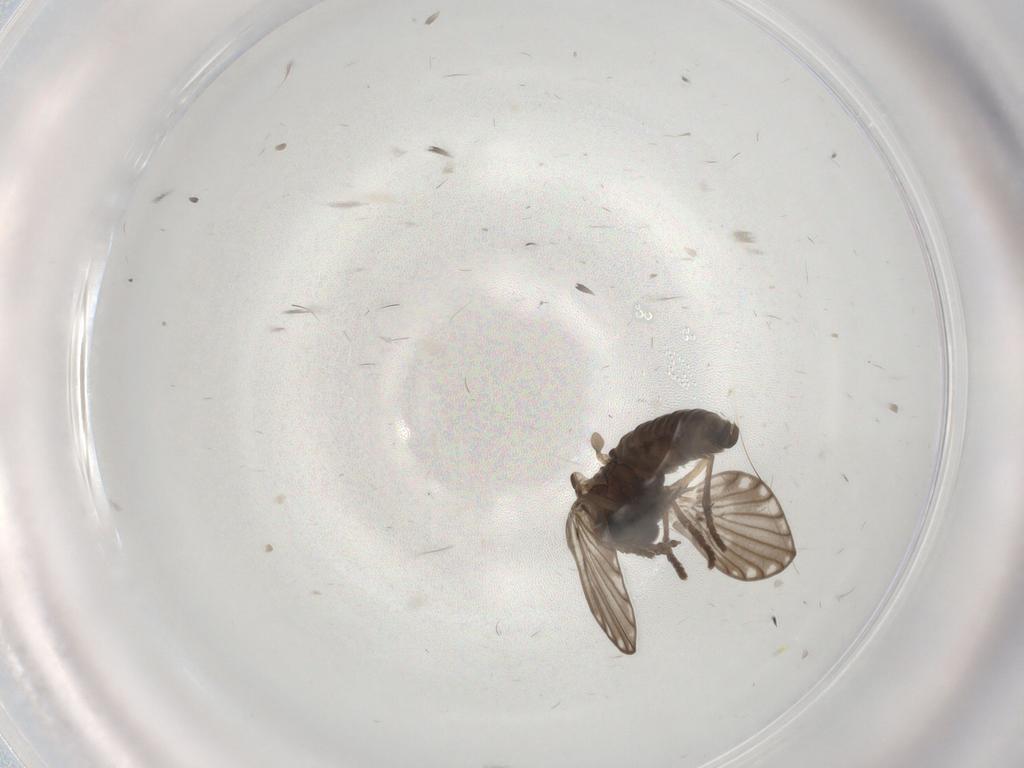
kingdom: Animalia
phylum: Arthropoda
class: Insecta
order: Diptera
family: Psychodidae
